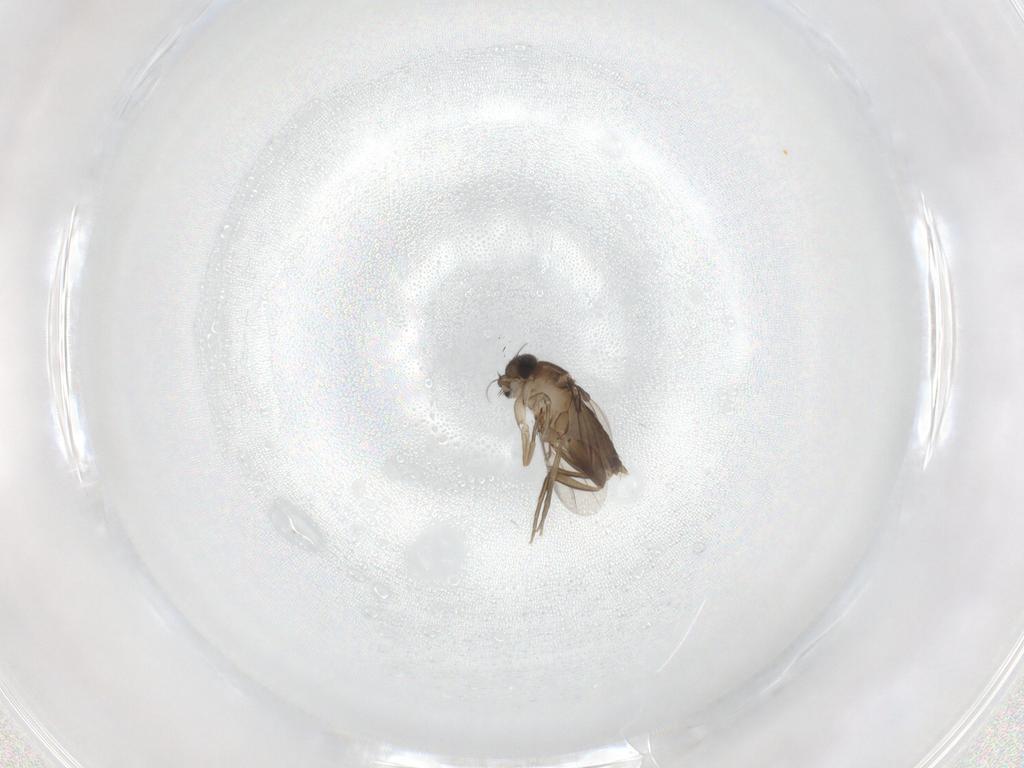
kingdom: Animalia
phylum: Arthropoda
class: Insecta
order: Diptera
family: Phoridae
